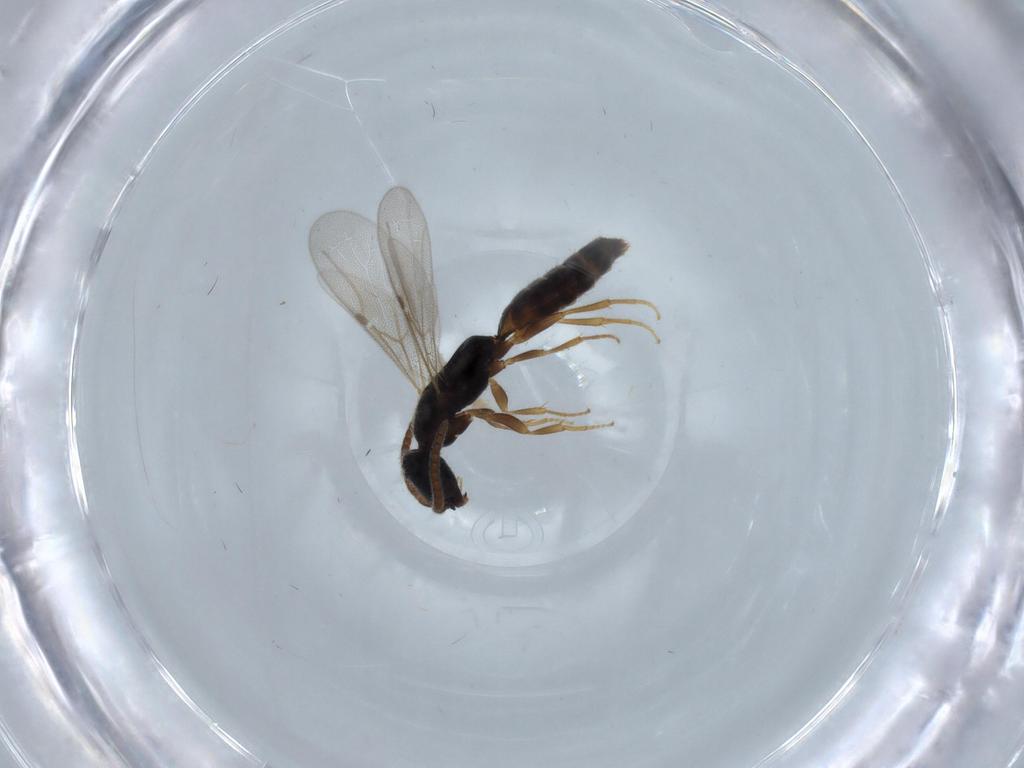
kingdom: Animalia
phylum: Arthropoda
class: Insecta
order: Hymenoptera
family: Bethylidae
